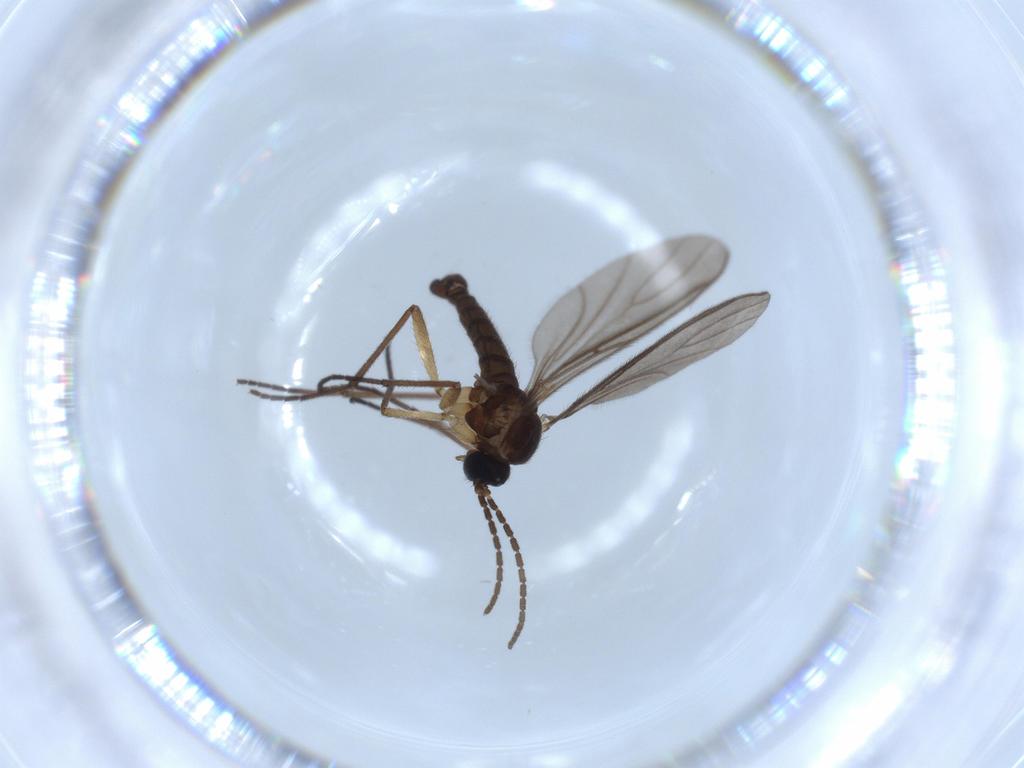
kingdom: Animalia
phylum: Arthropoda
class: Insecta
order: Diptera
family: Sciaridae
